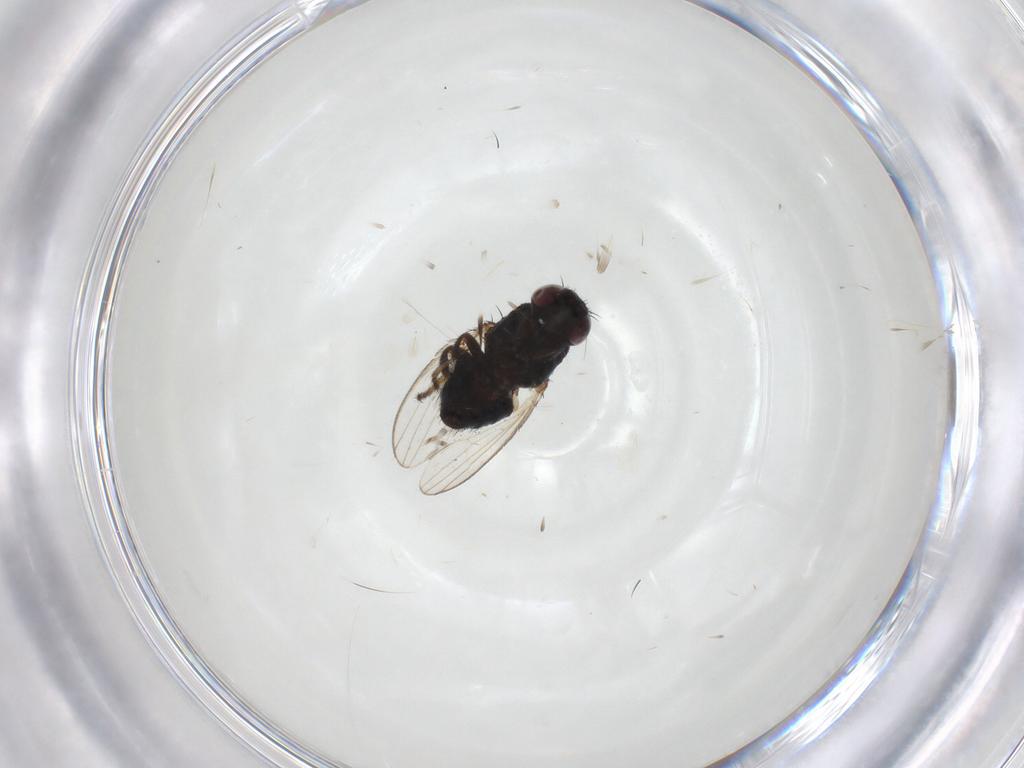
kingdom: Animalia
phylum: Arthropoda
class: Insecta
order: Diptera
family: Milichiidae
